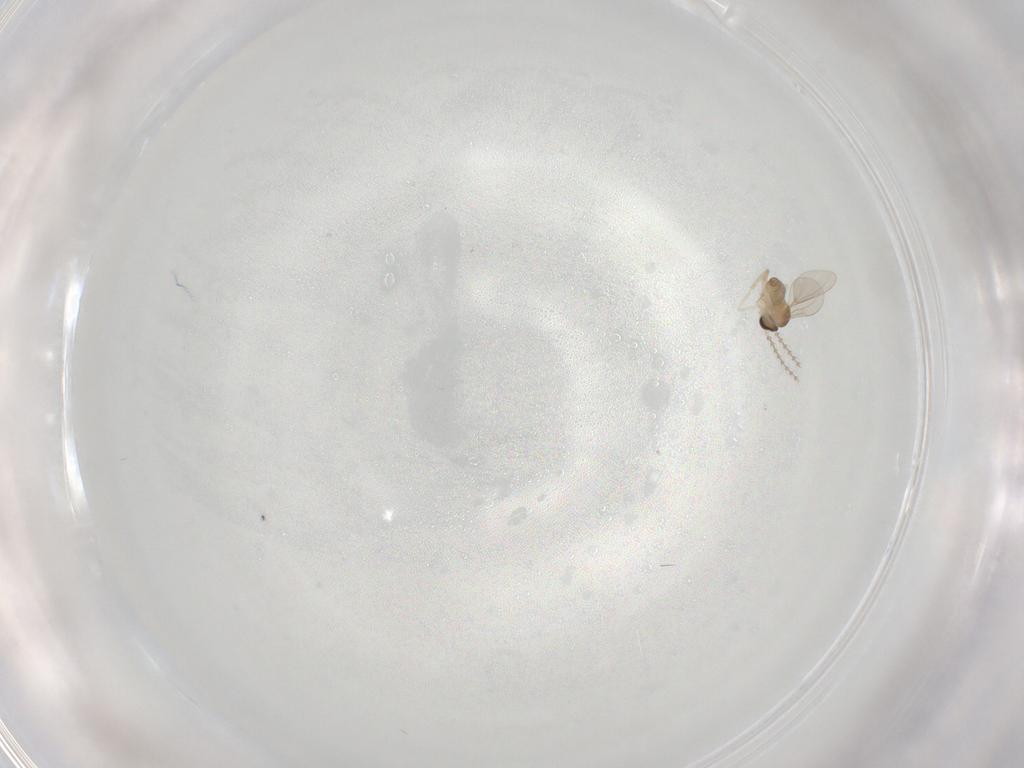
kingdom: Animalia
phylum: Arthropoda
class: Insecta
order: Diptera
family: Cecidomyiidae
